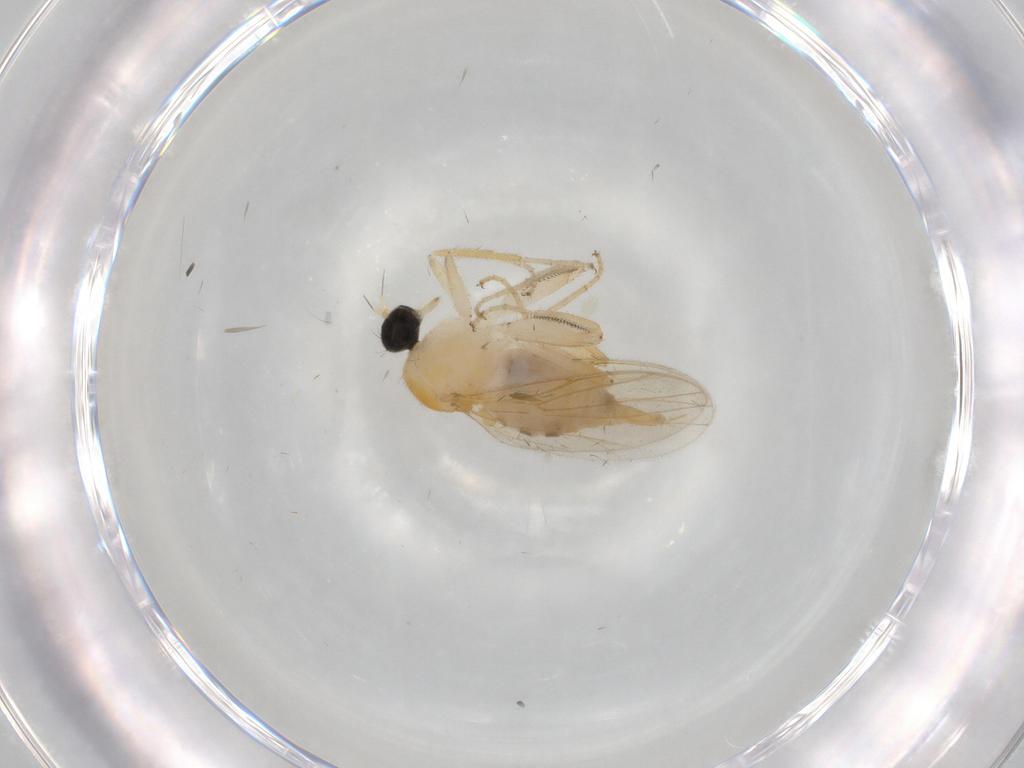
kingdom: Animalia
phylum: Arthropoda
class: Insecta
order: Diptera
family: Cecidomyiidae
